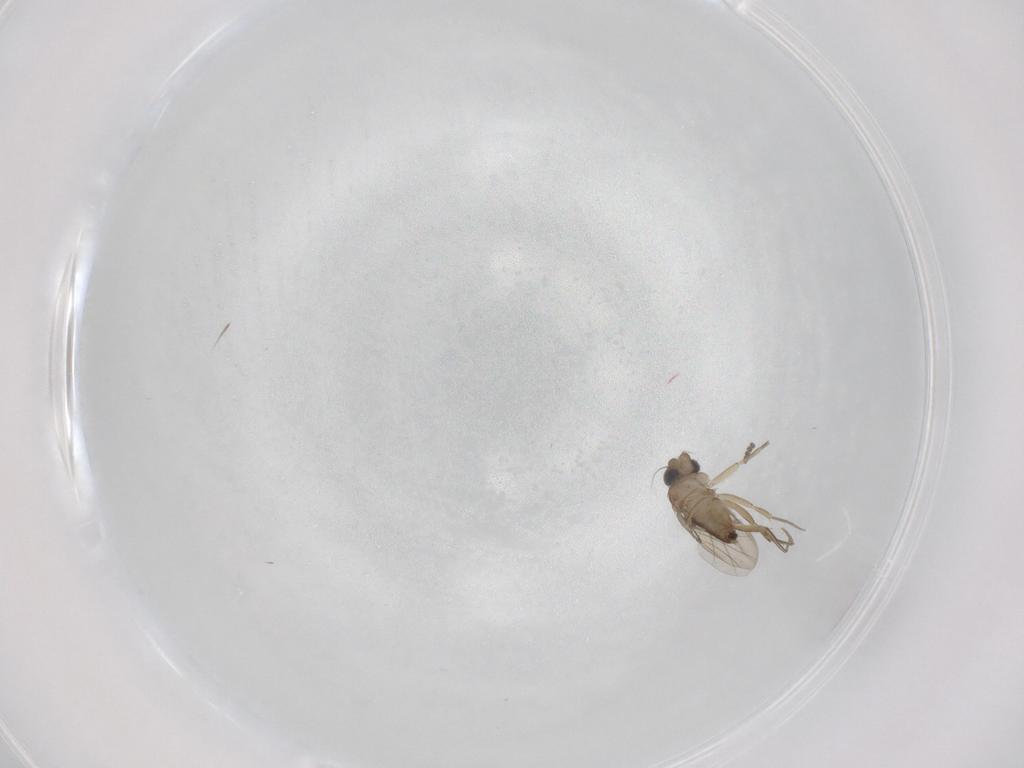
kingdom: Animalia
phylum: Arthropoda
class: Insecta
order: Diptera
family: Phoridae
